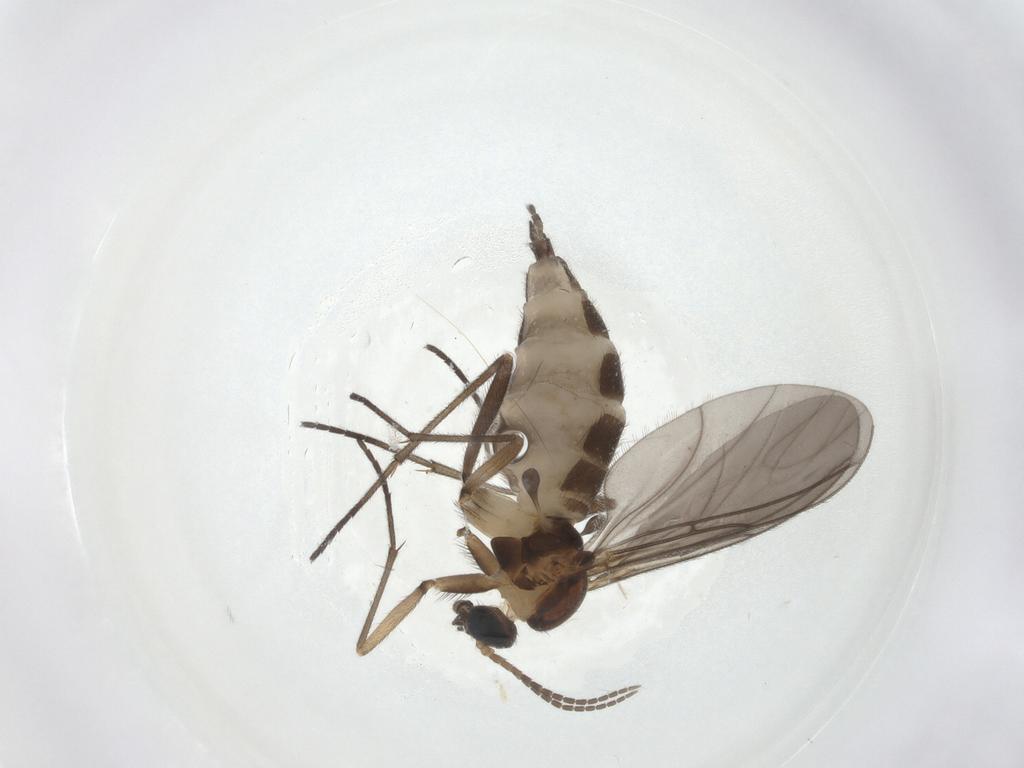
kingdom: Animalia
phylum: Arthropoda
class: Insecta
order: Diptera
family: Sciaridae
